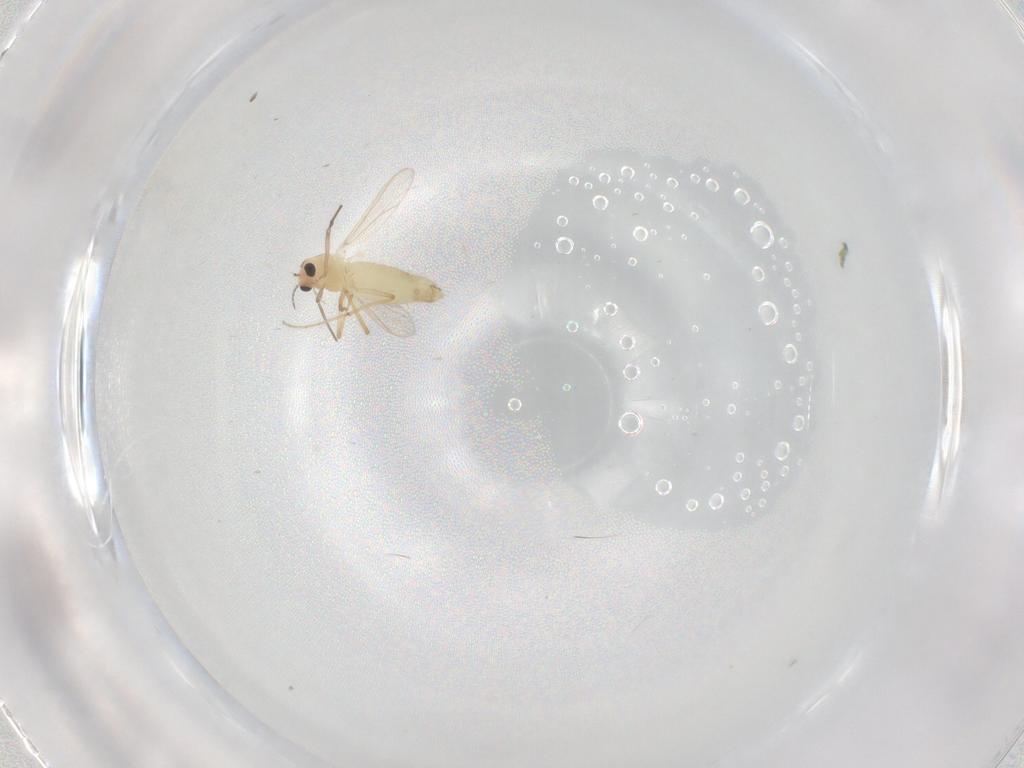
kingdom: Animalia
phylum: Arthropoda
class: Insecta
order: Diptera
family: Chironomidae
